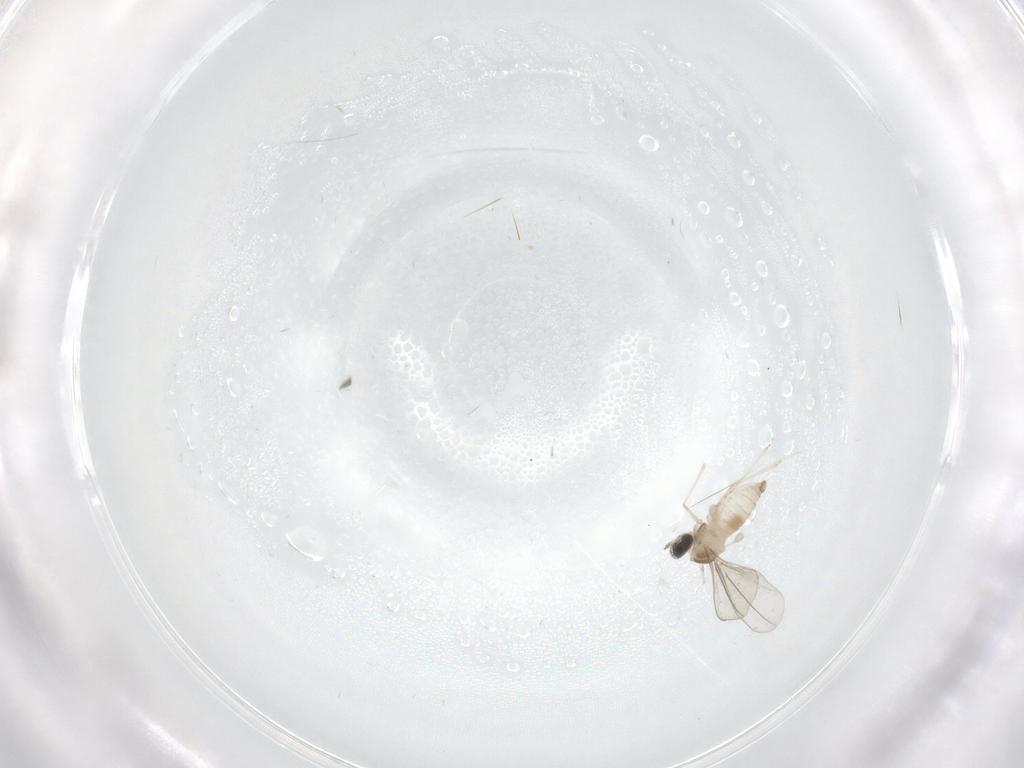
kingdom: Animalia
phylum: Arthropoda
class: Insecta
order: Diptera
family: Cecidomyiidae
